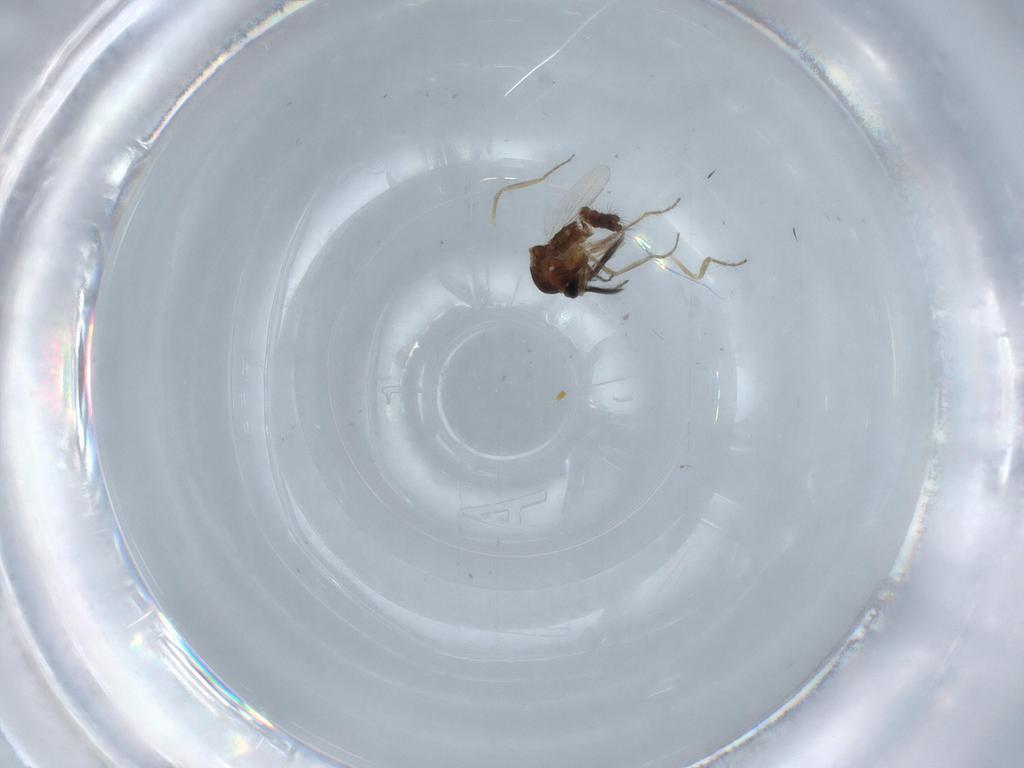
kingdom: Animalia
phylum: Arthropoda
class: Insecta
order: Diptera
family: Ceratopogonidae
